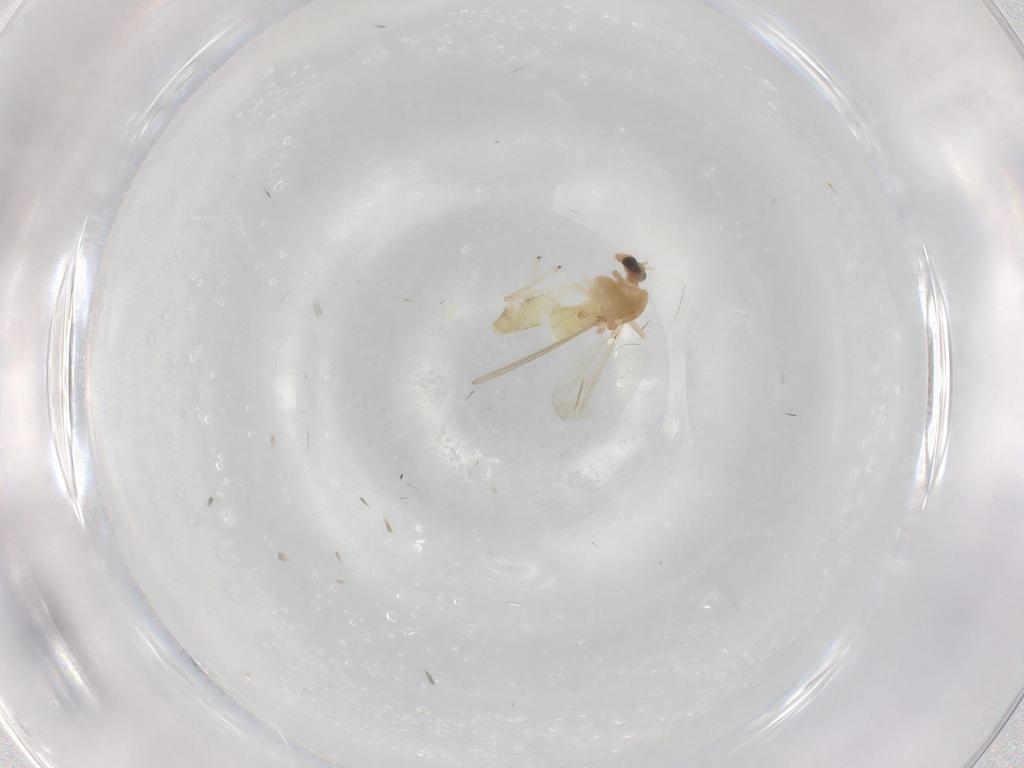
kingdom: Animalia
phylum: Arthropoda
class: Insecta
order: Diptera
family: Chironomidae
